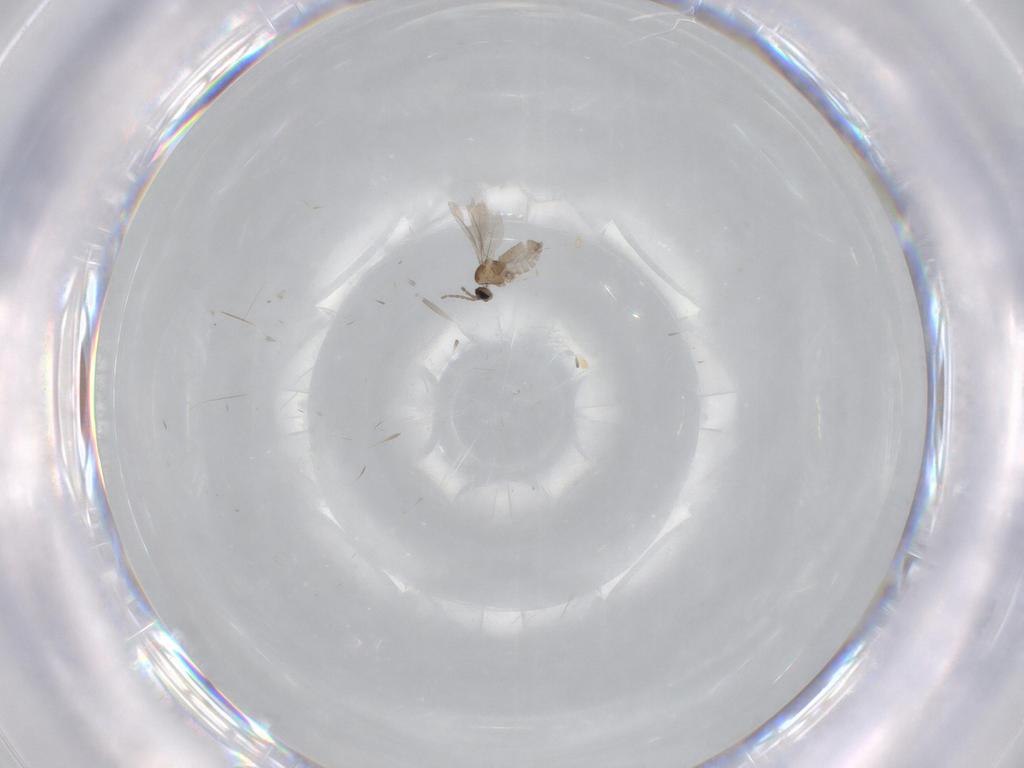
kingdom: Animalia
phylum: Arthropoda
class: Insecta
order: Diptera
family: Cecidomyiidae
